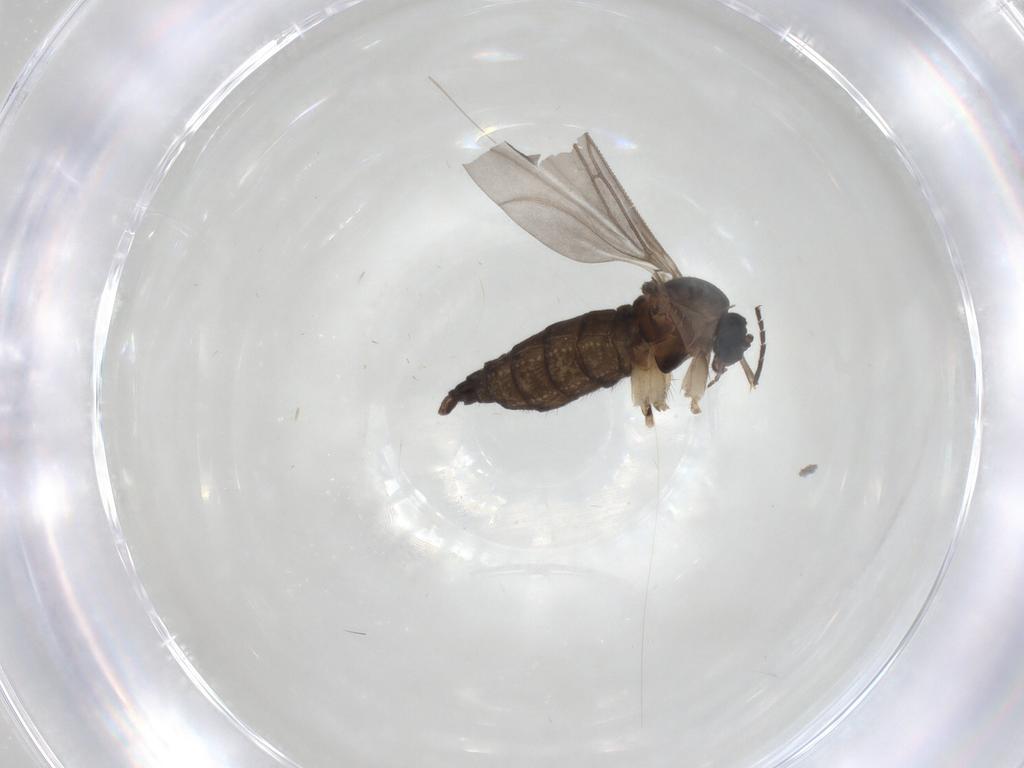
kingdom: Animalia
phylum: Arthropoda
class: Insecta
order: Diptera
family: Sciaridae
